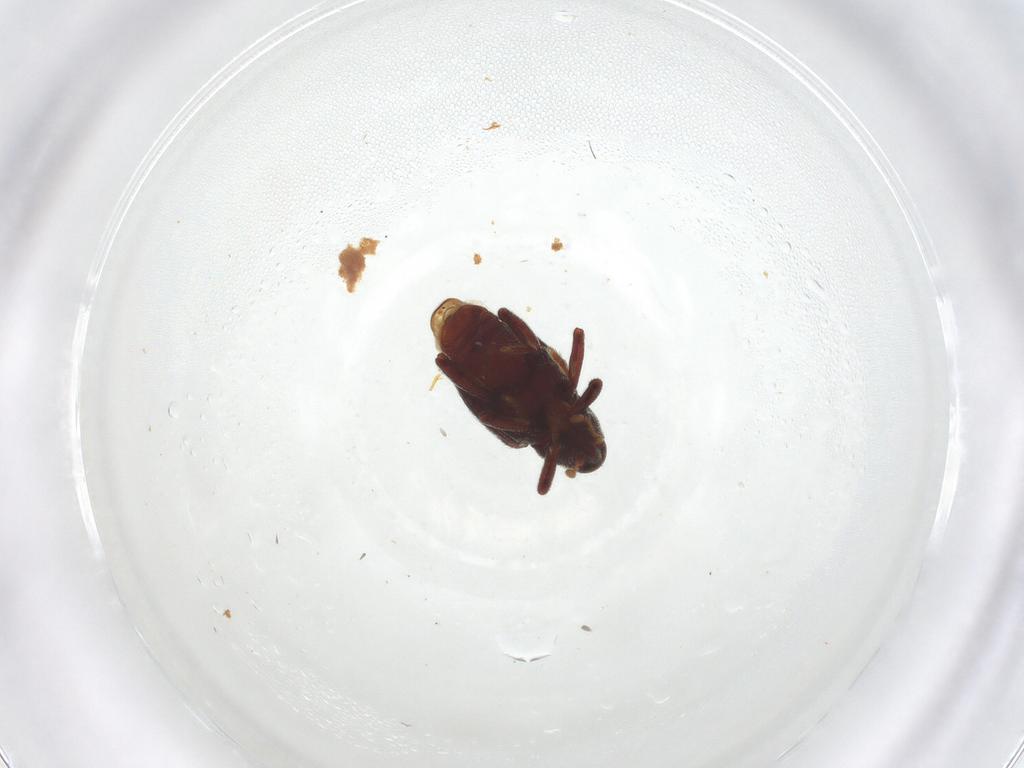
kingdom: Animalia
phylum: Arthropoda
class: Insecta
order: Coleoptera
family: Curculionidae
